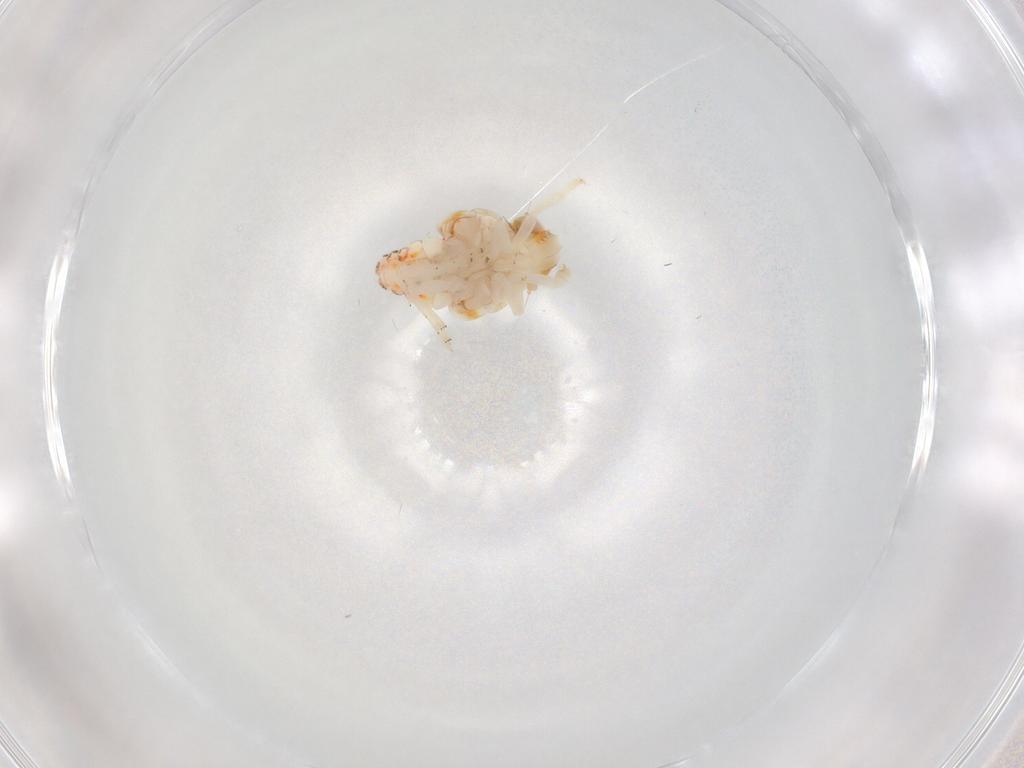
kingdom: Animalia
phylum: Arthropoda
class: Insecta
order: Hemiptera
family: Nogodinidae
